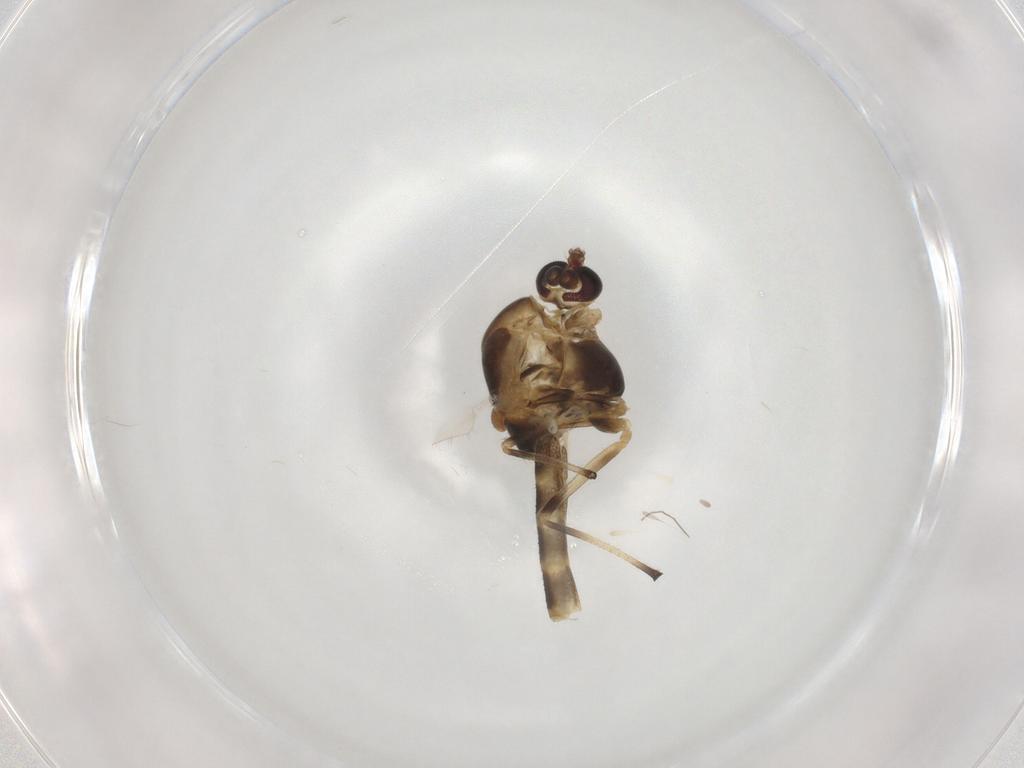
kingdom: Animalia
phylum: Arthropoda
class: Insecta
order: Diptera
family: Chironomidae
